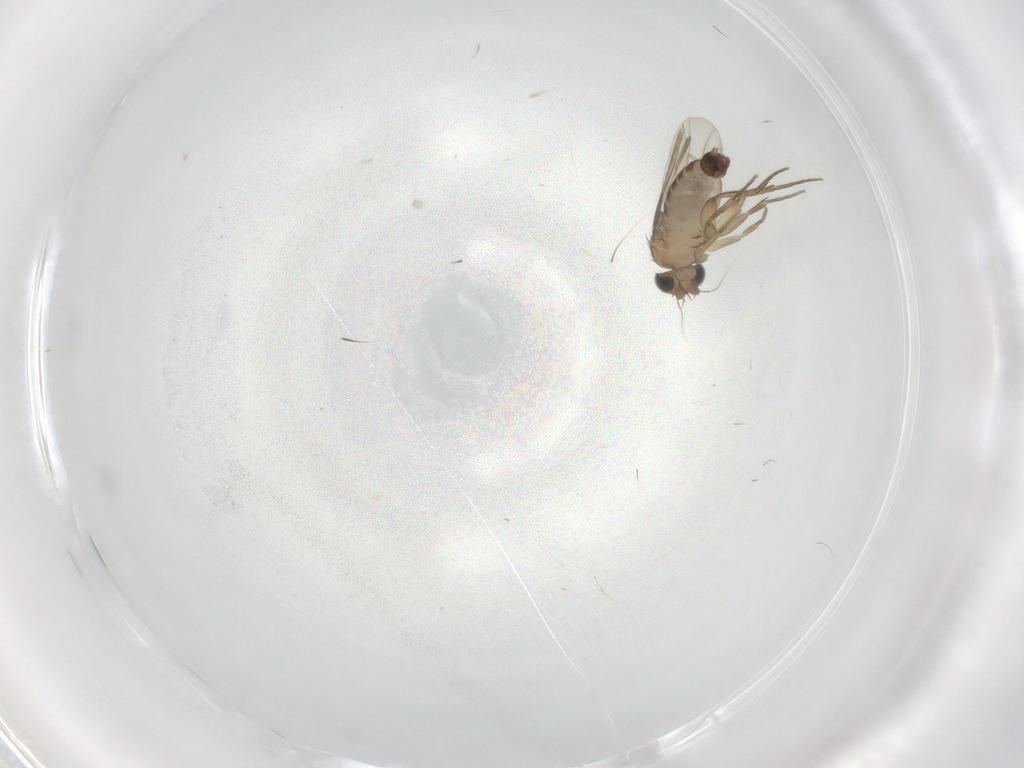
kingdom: Animalia
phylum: Arthropoda
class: Insecta
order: Diptera
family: Phoridae
